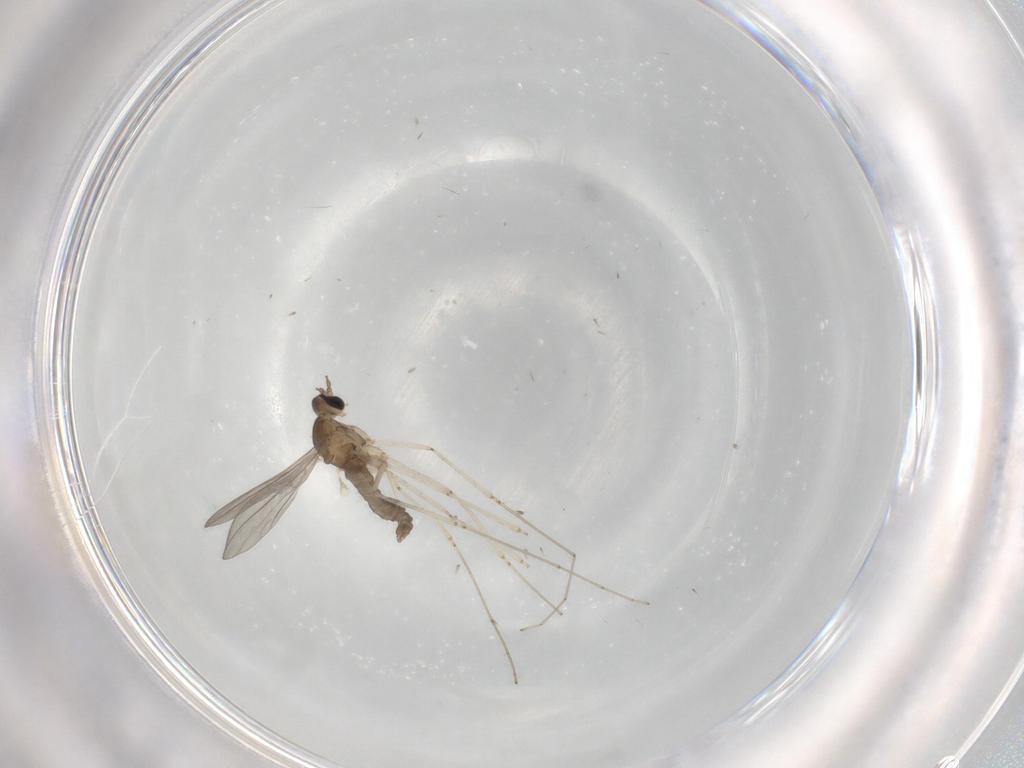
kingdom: Animalia
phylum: Arthropoda
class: Insecta
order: Diptera
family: Cecidomyiidae
